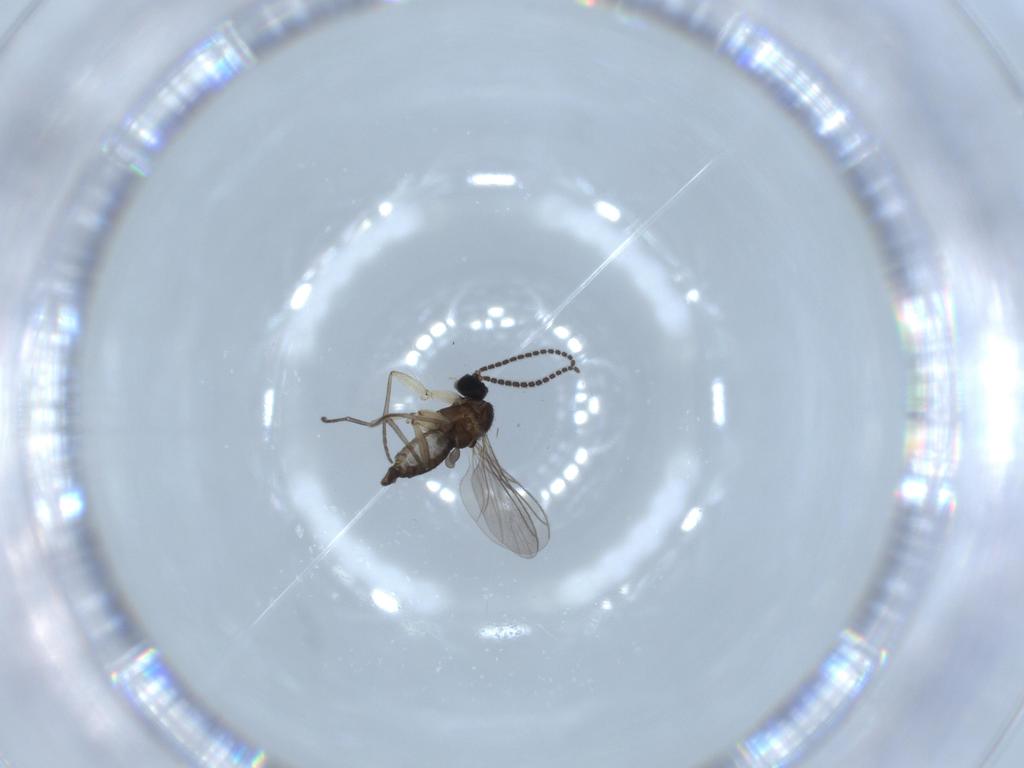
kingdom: Animalia
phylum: Arthropoda
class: Insecta
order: Diptera
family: Sciaridae
